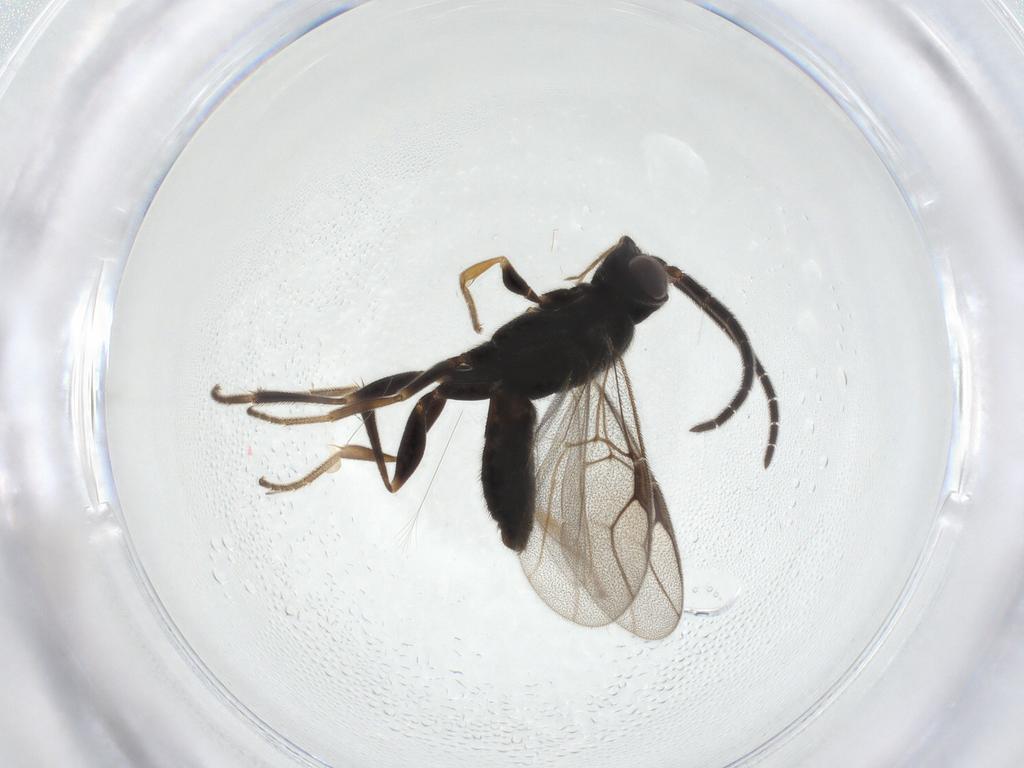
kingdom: Animalia
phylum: Arthropoda
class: Insecta
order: Hymenoptera
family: Dryinidae
